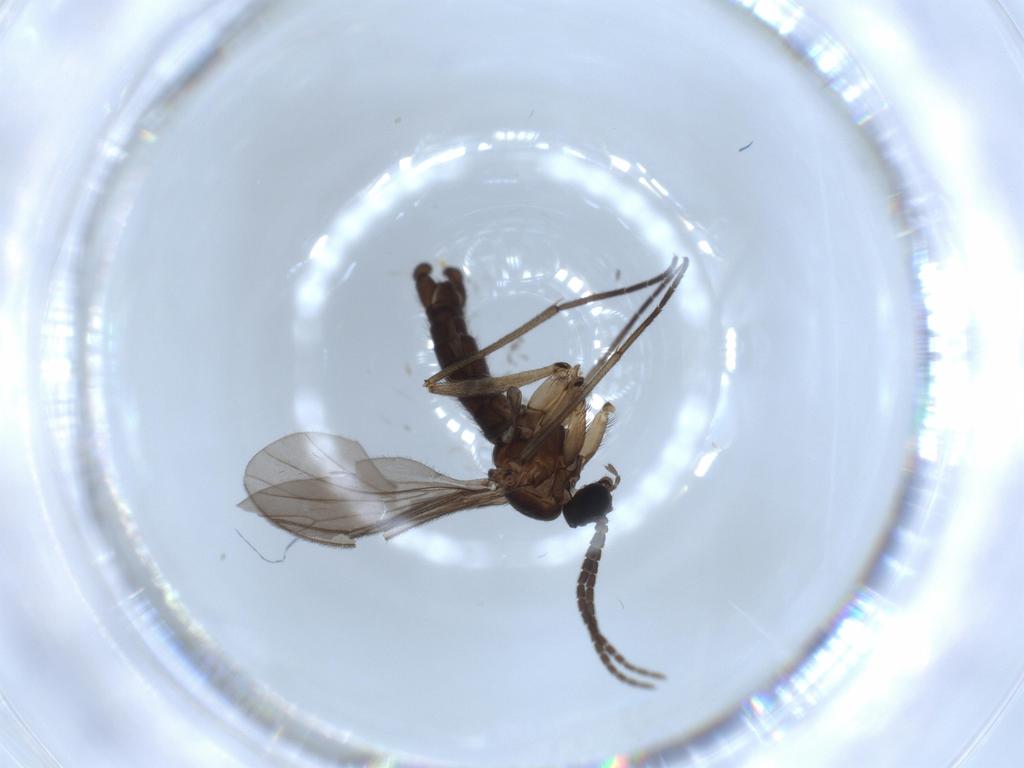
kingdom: Animalia
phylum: Arthropoda
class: Insecta
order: Diptera
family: Sciaridae
